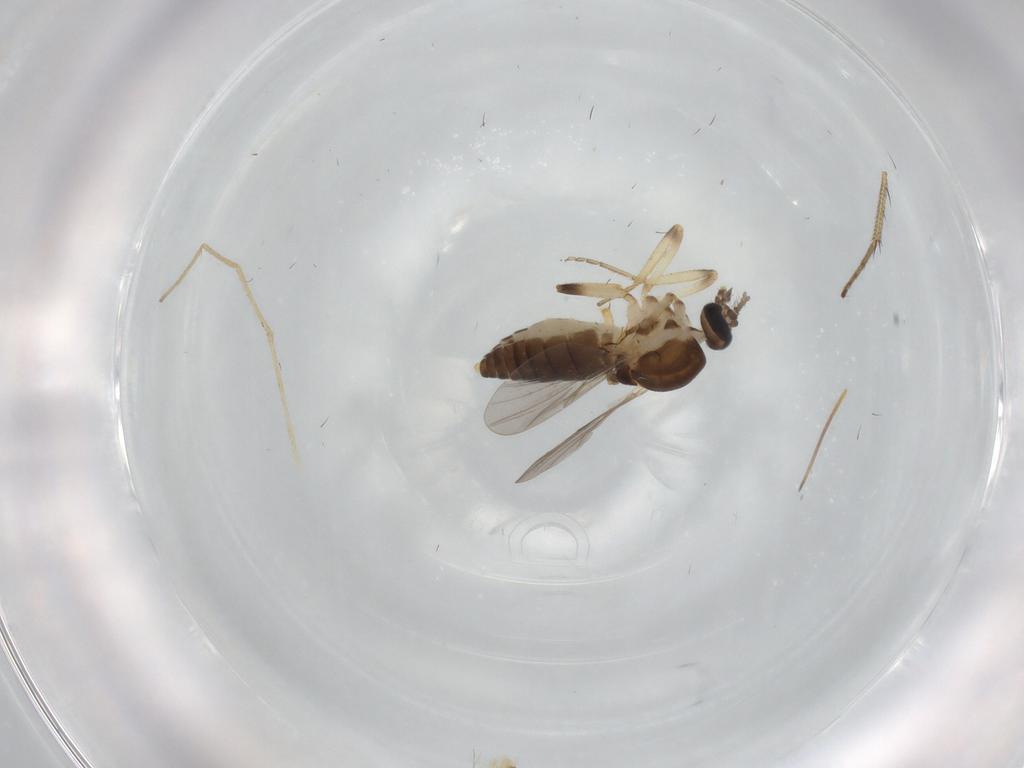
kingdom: Animalia
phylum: Arthropoda
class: Insecta
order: Diptera
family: Ceratopogonidae
